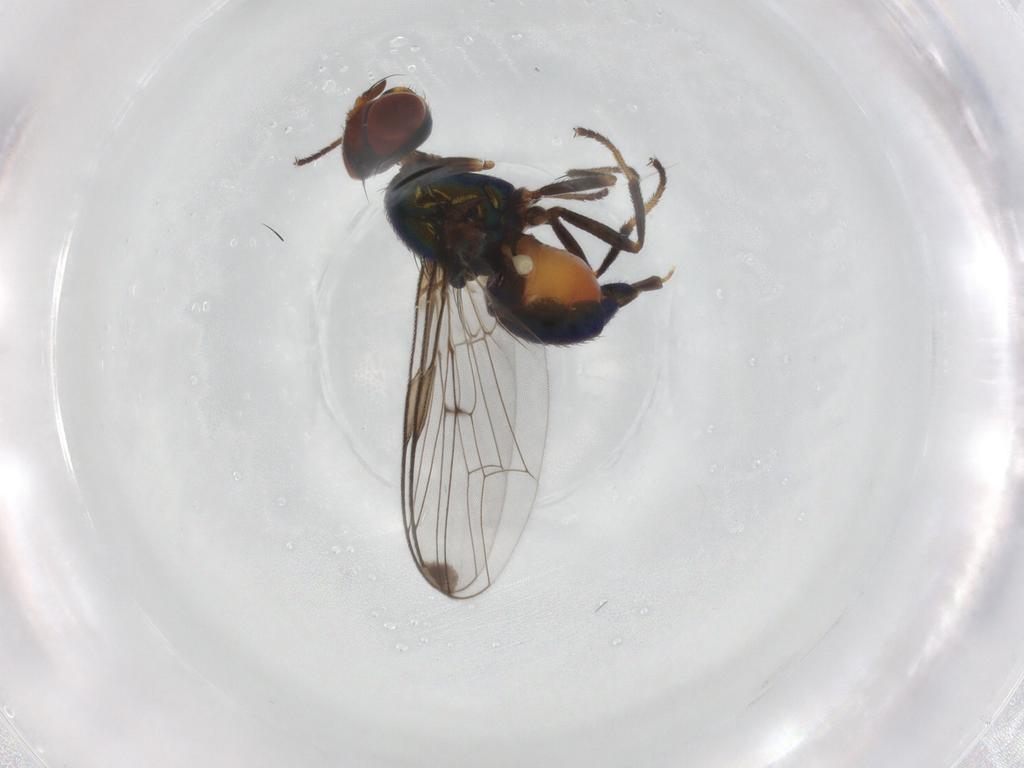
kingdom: Animalia
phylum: Arthropoda
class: Insecta
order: Diptera
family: Platystomatidae
